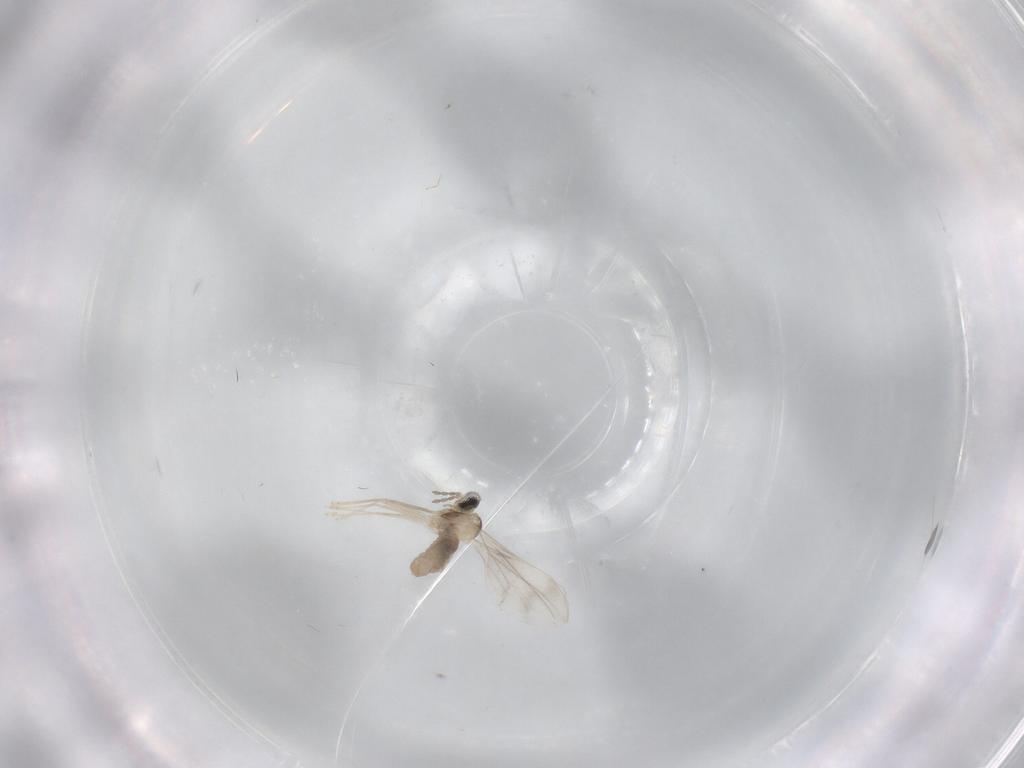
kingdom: Animalia
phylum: Arthropoda
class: Insecta
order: Diptera
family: Cecidomyiidae
